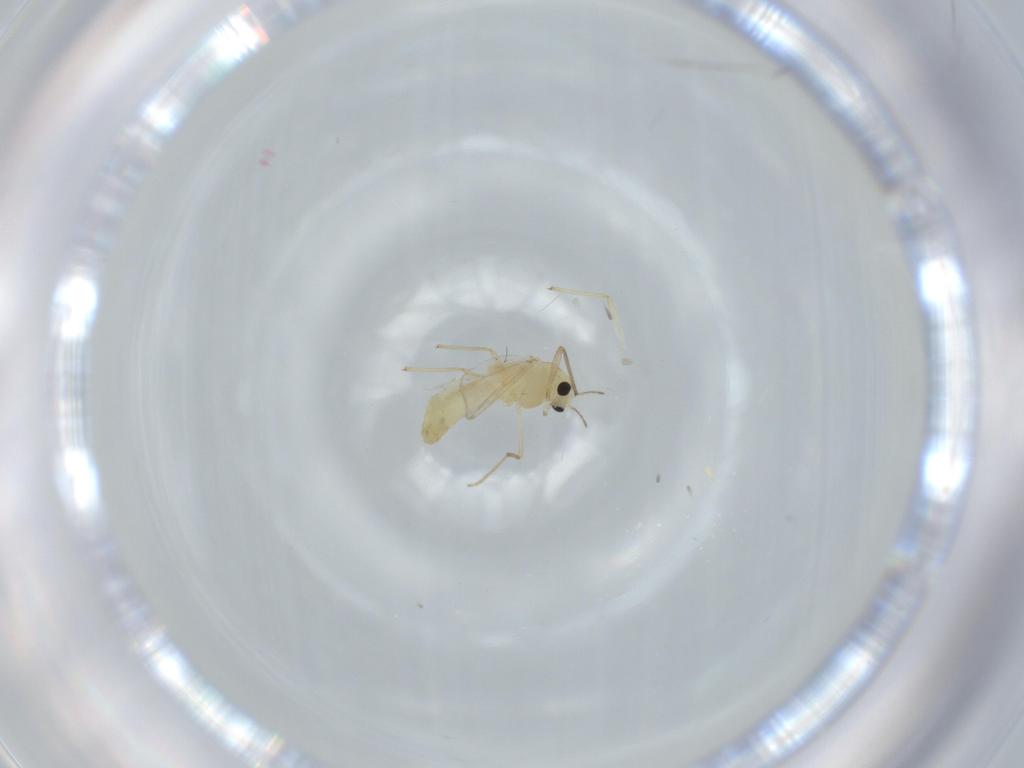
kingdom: Animalia
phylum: Arthropoda
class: Insecta
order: Diptera
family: Chironomidae
